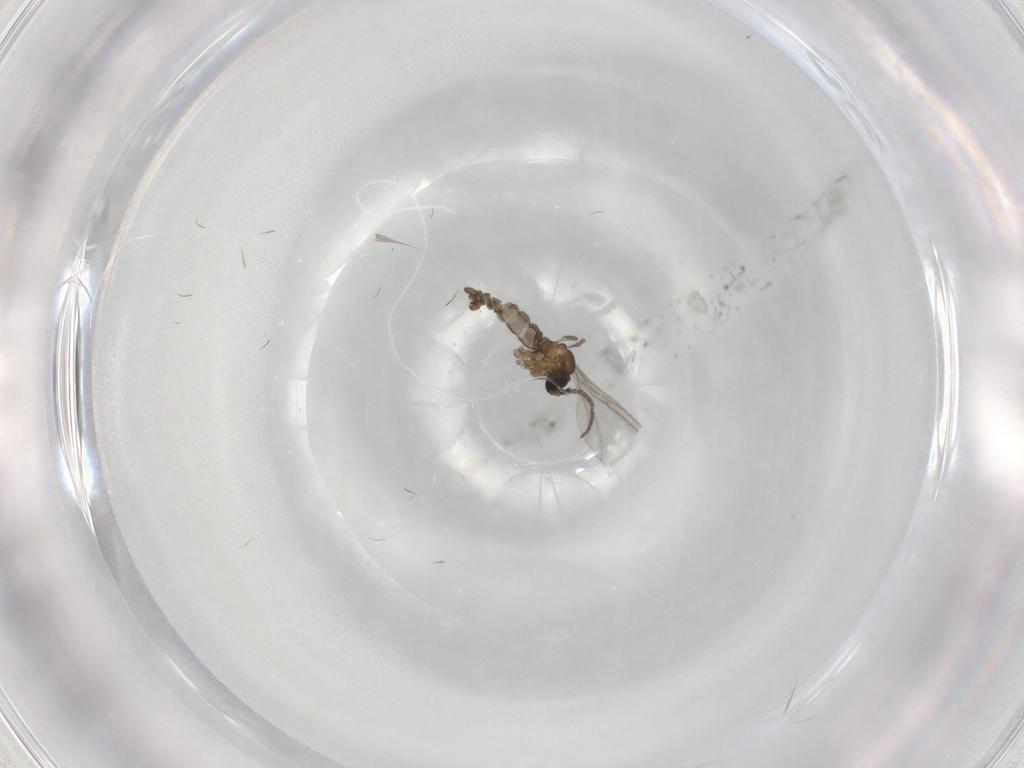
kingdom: Animalia
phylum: Arthropoda
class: Insecta
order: Diptera
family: Sciaridae
